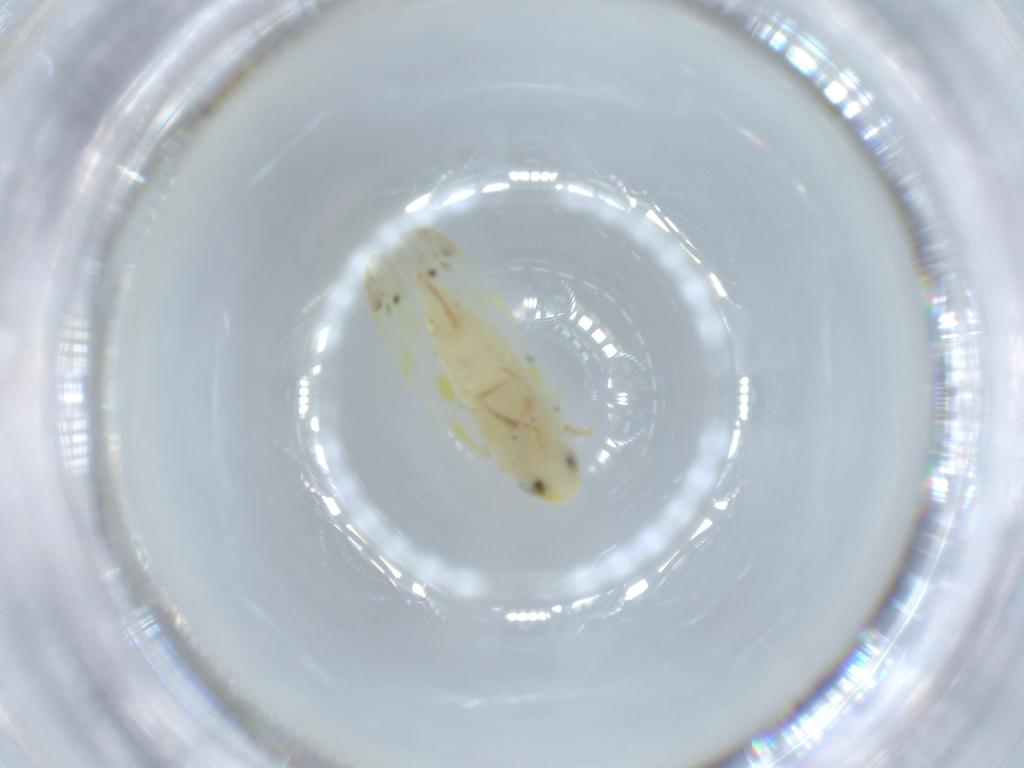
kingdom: Animalia
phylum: Arthropoda
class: Insecta
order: Hemiptera
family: Cicadellidae
